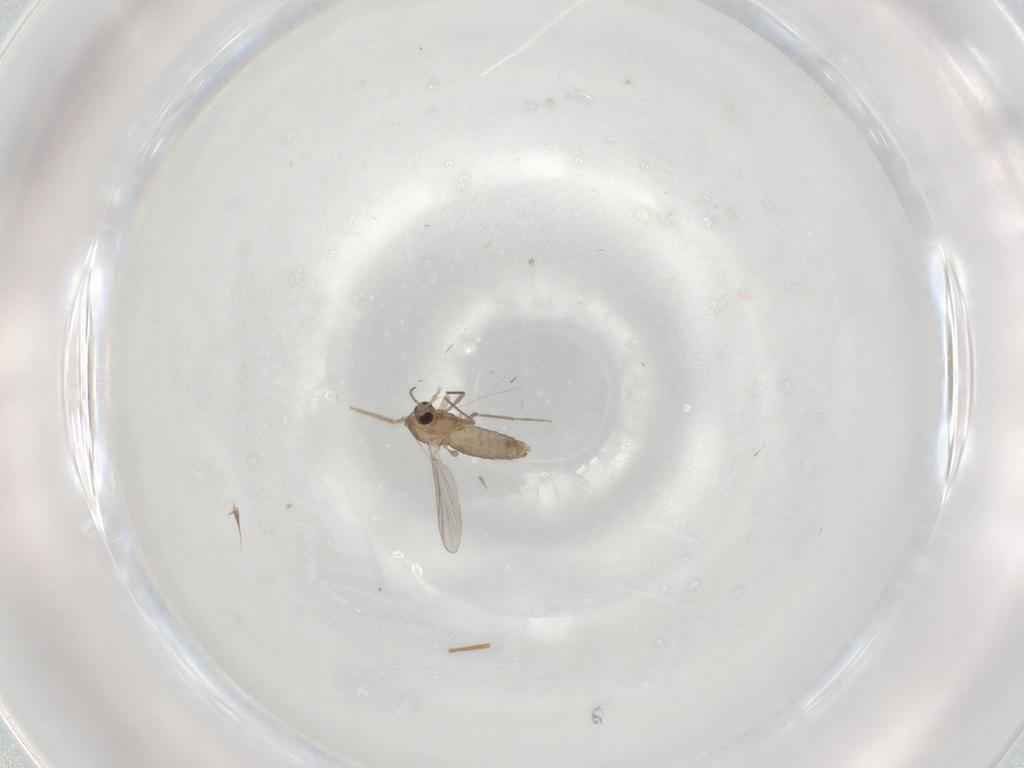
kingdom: Animalia
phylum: Arthropoda
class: Insecta
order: Diptera
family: Chironomidae
